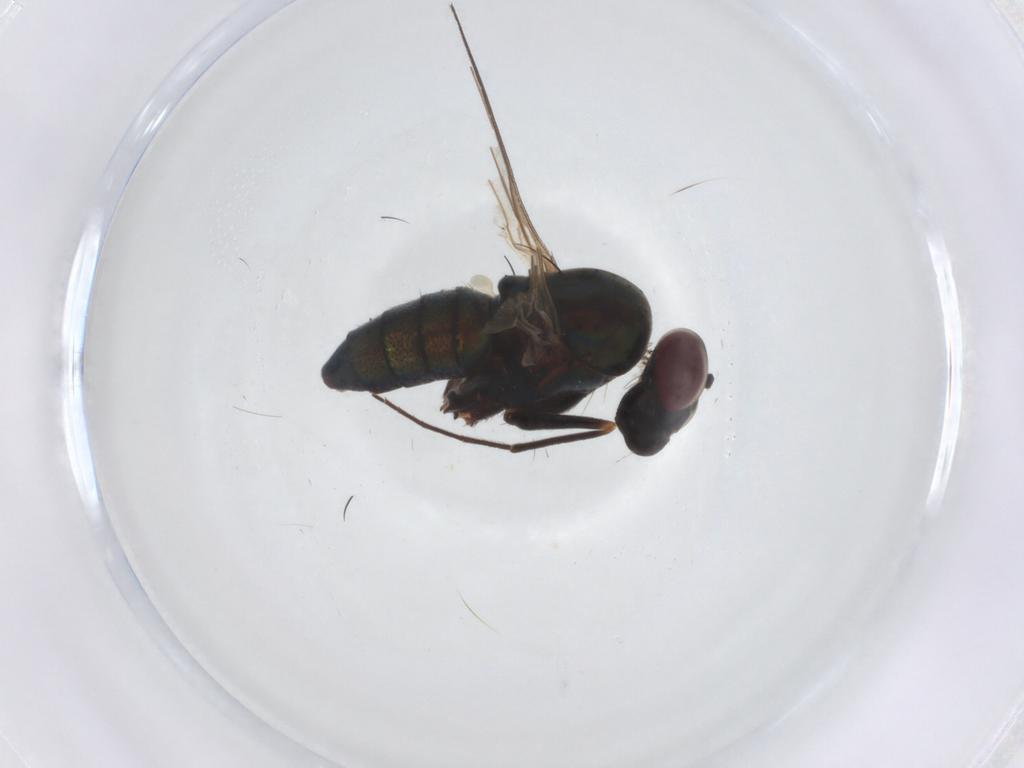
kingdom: Animalia
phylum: Arthropoda
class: Insecta
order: Diptera
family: Dolichopodidae
